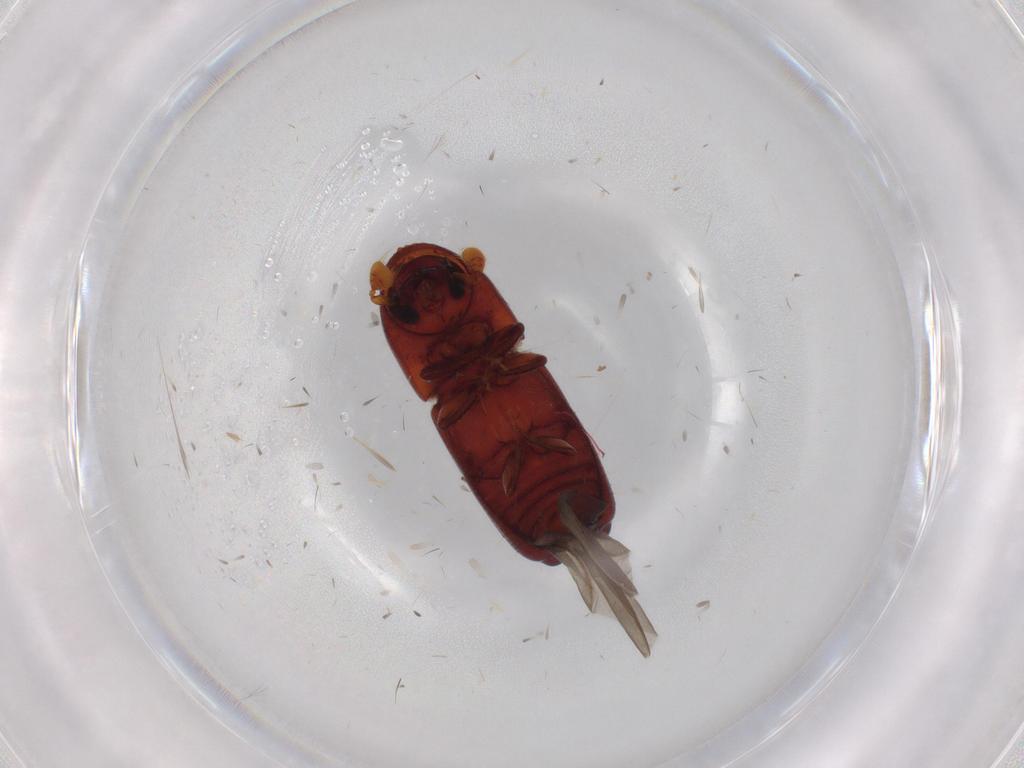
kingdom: Animalia
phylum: Arthropoda
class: Insecta
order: Coleoptera
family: Carabidae
